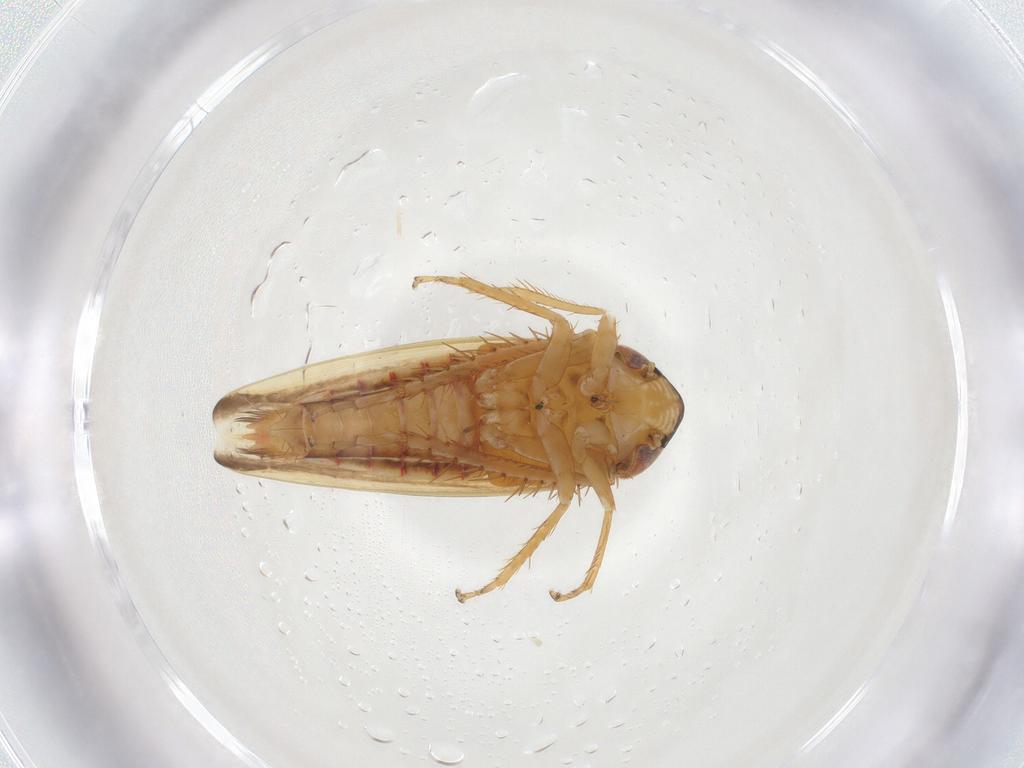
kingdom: Animalia
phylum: Arthropoda
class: Insecta
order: Hemiptera
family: Cicadellidae
